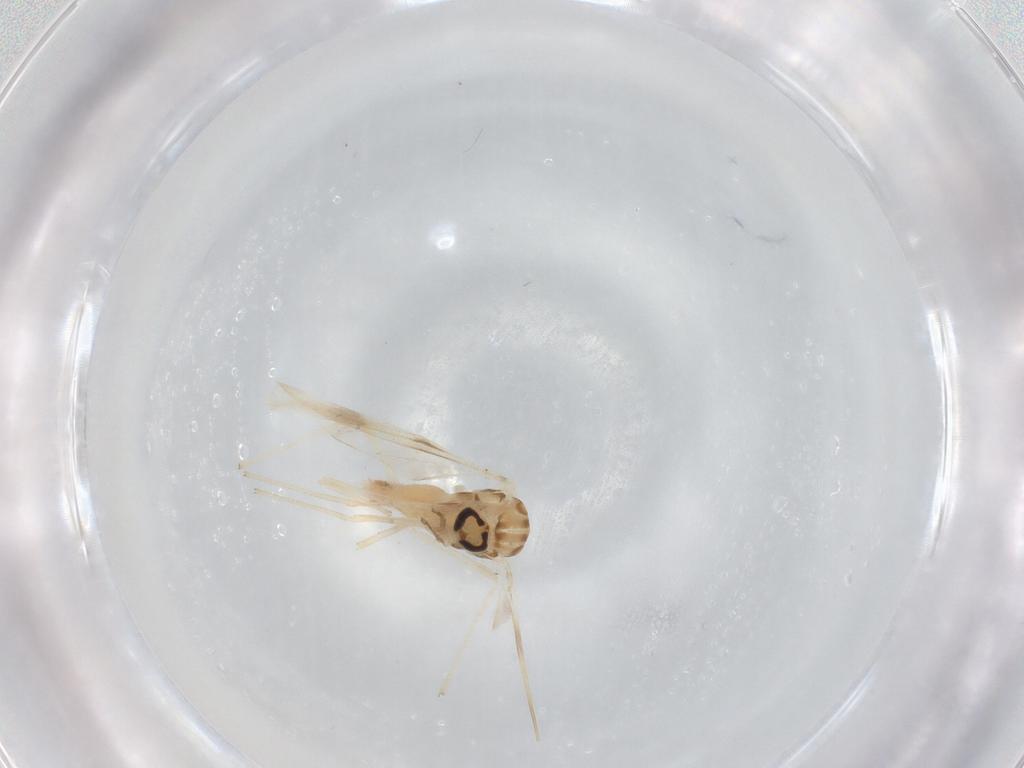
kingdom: Animalia
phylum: Arthropoda
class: Insecta
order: Diptera
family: Chironomidae
